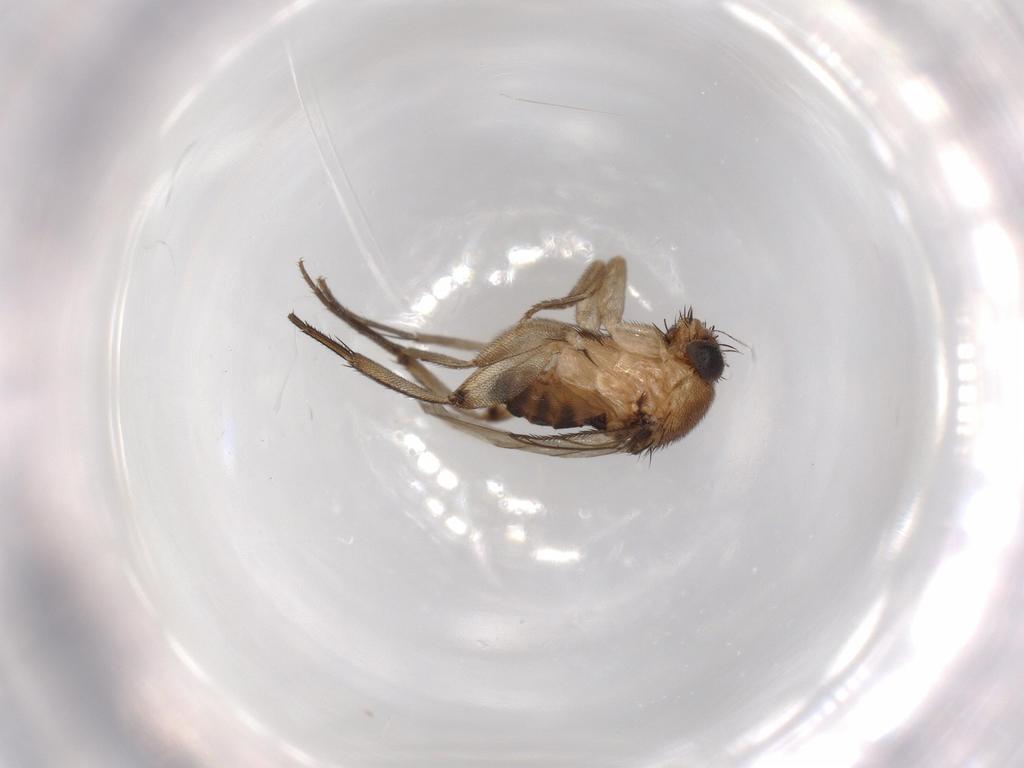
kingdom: Animalia
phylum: Arthropoda
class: Insecta
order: Diptera
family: Phoridae
